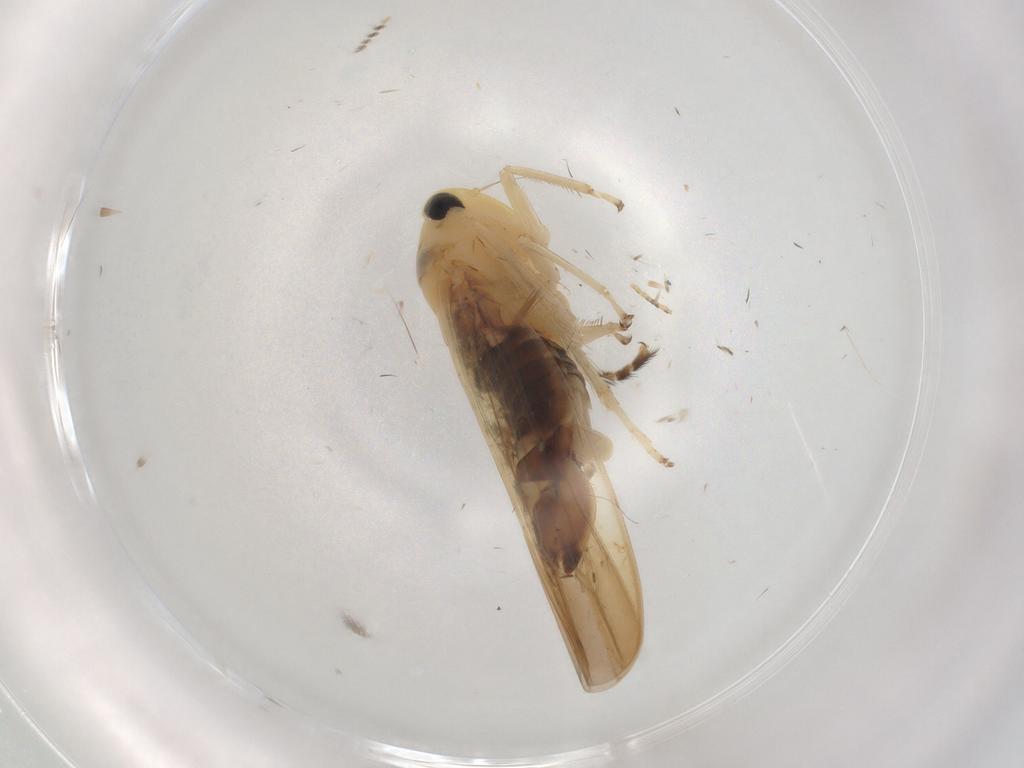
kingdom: Animalia
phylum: Arthropoda
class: Insecta
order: Hemiptera
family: Cicadellidae
